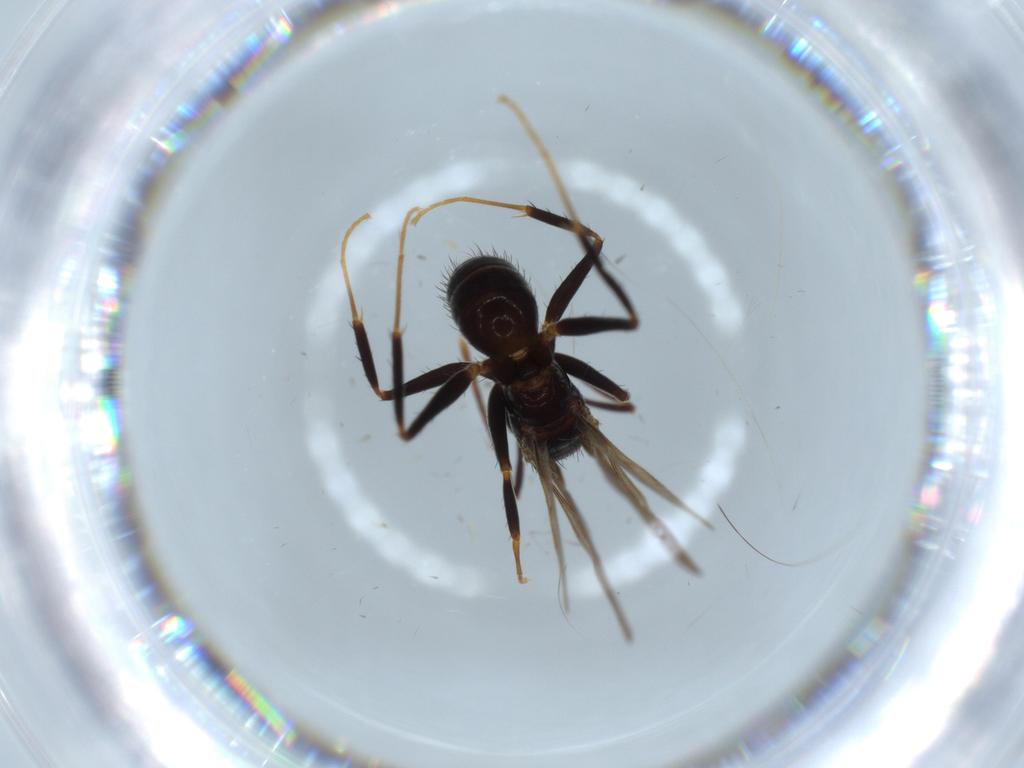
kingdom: Animalia
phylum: Arthropoda
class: Insecta
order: Hymenoptera
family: Formicidae
